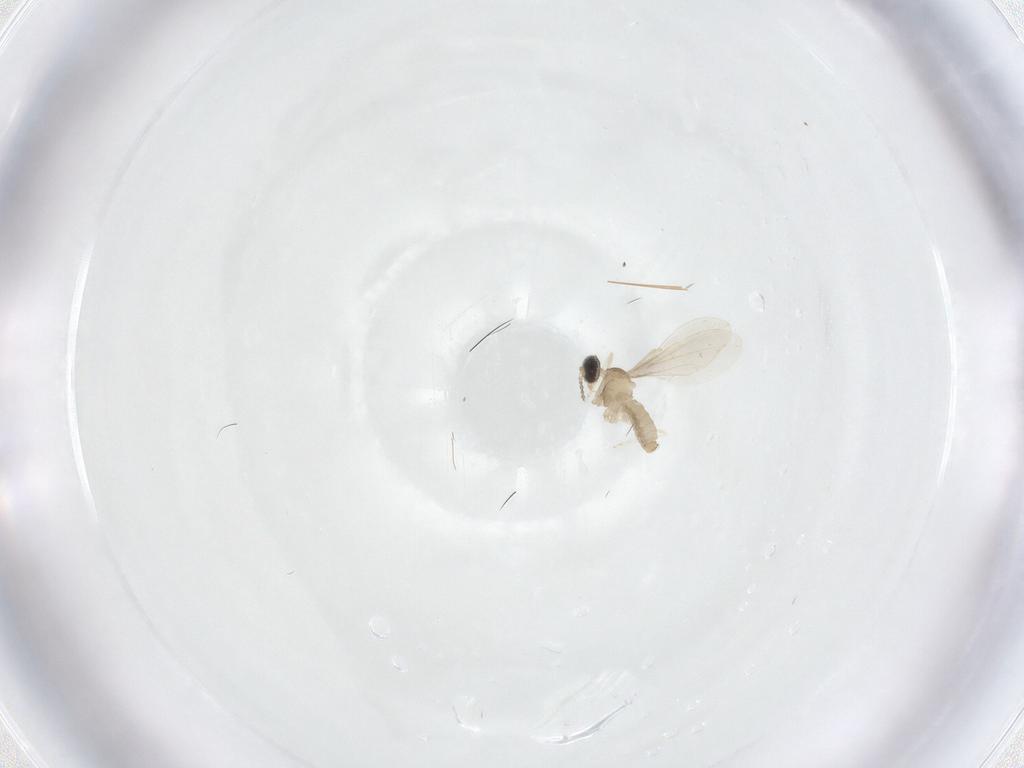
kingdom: Animalia
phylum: Arthropoda
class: Insecta
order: Diptera
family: Cecidomyiidae
